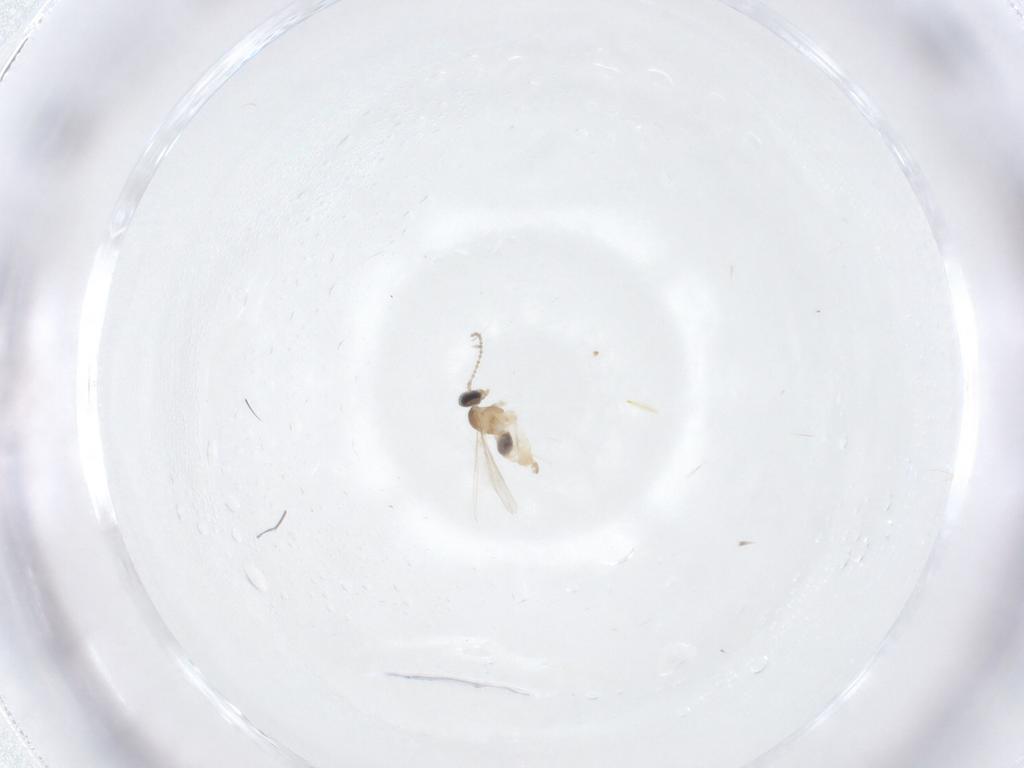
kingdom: Animalia
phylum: Arthropoda
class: Insecta
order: Diptera
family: Cecidomyiidae
